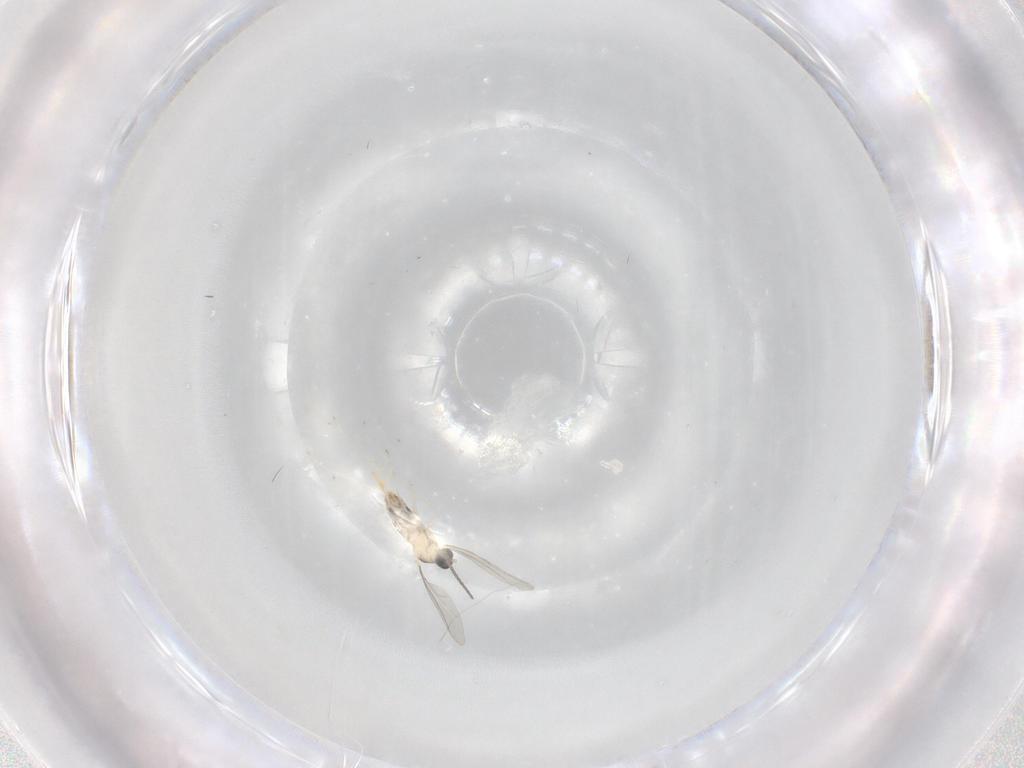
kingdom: Animalia
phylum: Arthropoda
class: Insecta
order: Diptera
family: Cecidomyiidae
